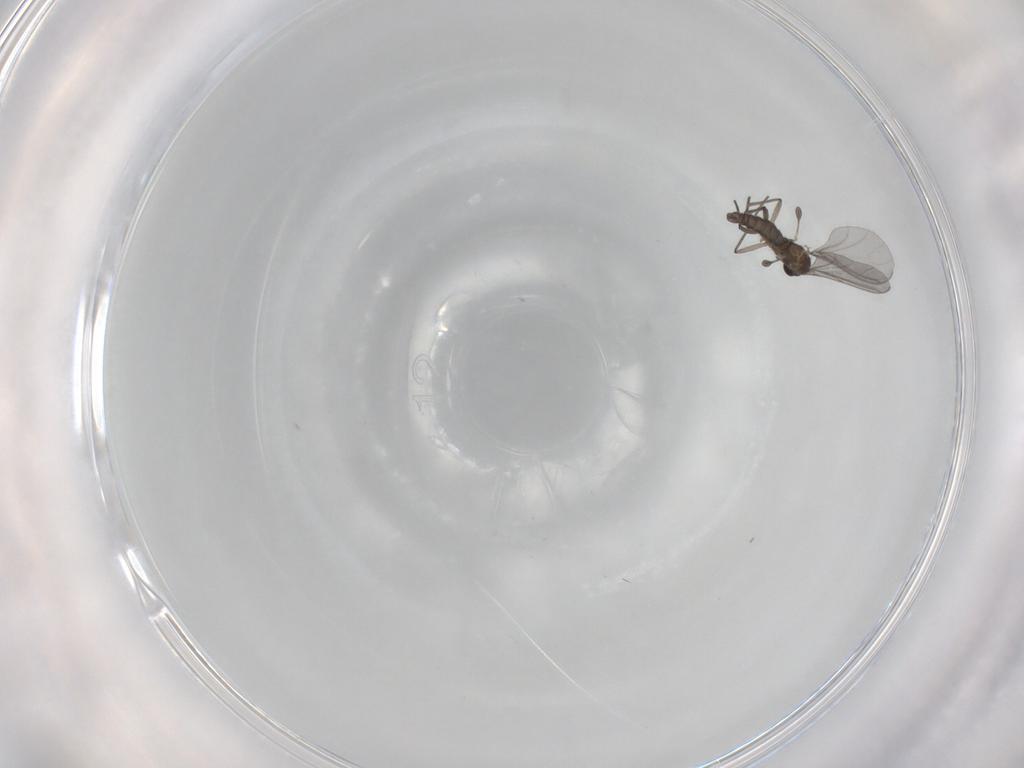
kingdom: Animalia
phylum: Arthropoda
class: Insecta
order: Diptera
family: Sciaridae
